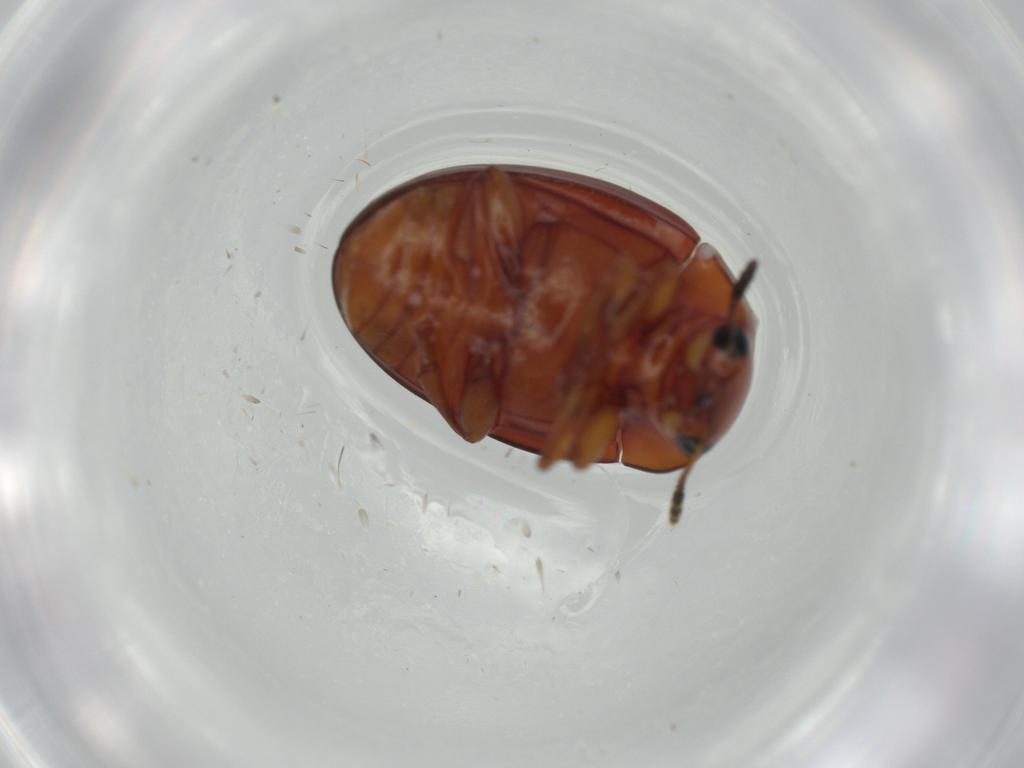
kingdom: Animalia
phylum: Arthropoda
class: Insecta
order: Coleoptera
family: Erotylidae
